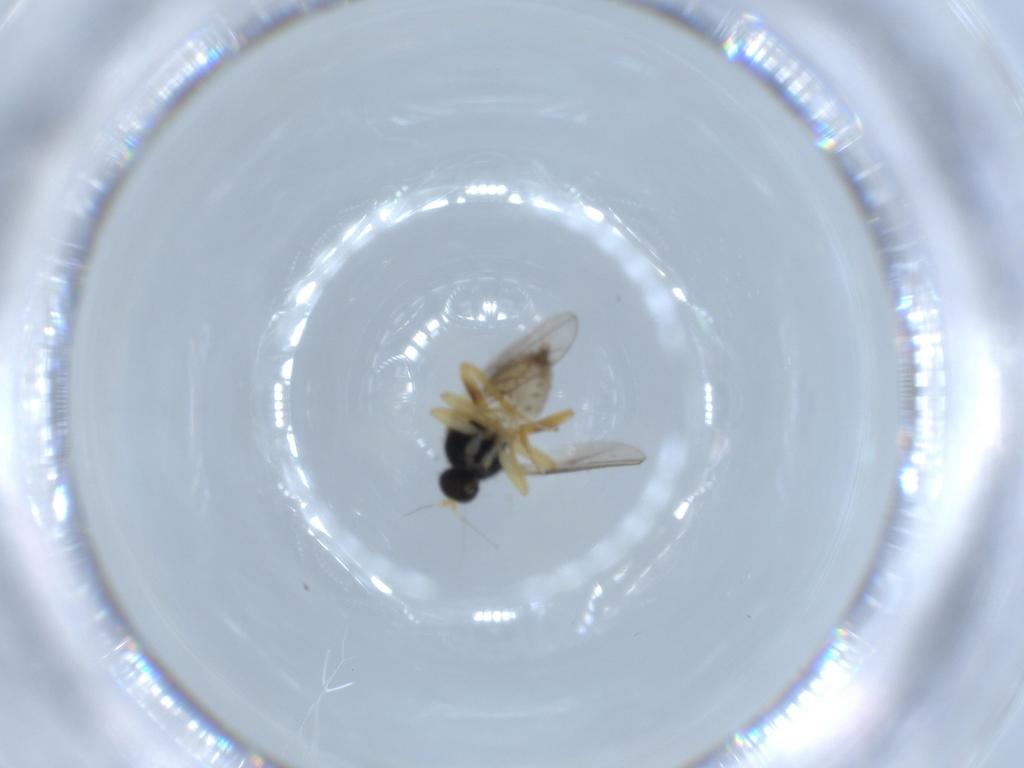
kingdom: Animalia
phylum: Arthropoda
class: Insecta
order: Diptera
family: Hybotidae
